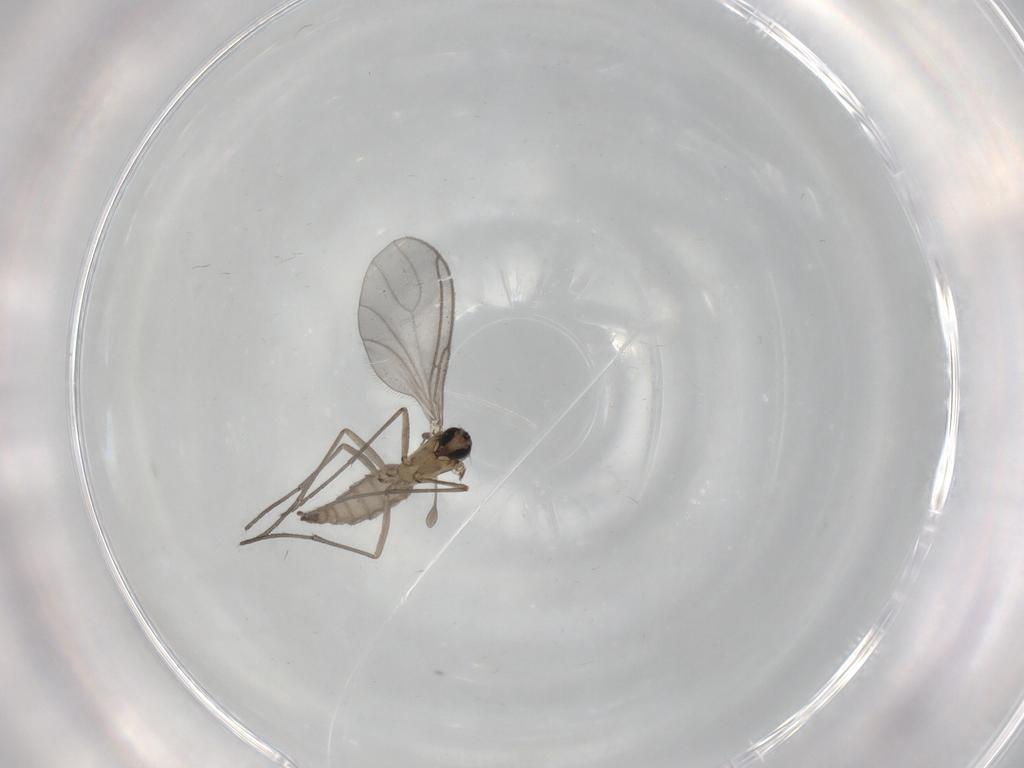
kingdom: Animalia
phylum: Arthropoda
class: Insecta
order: Diptera
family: Sciaridae
